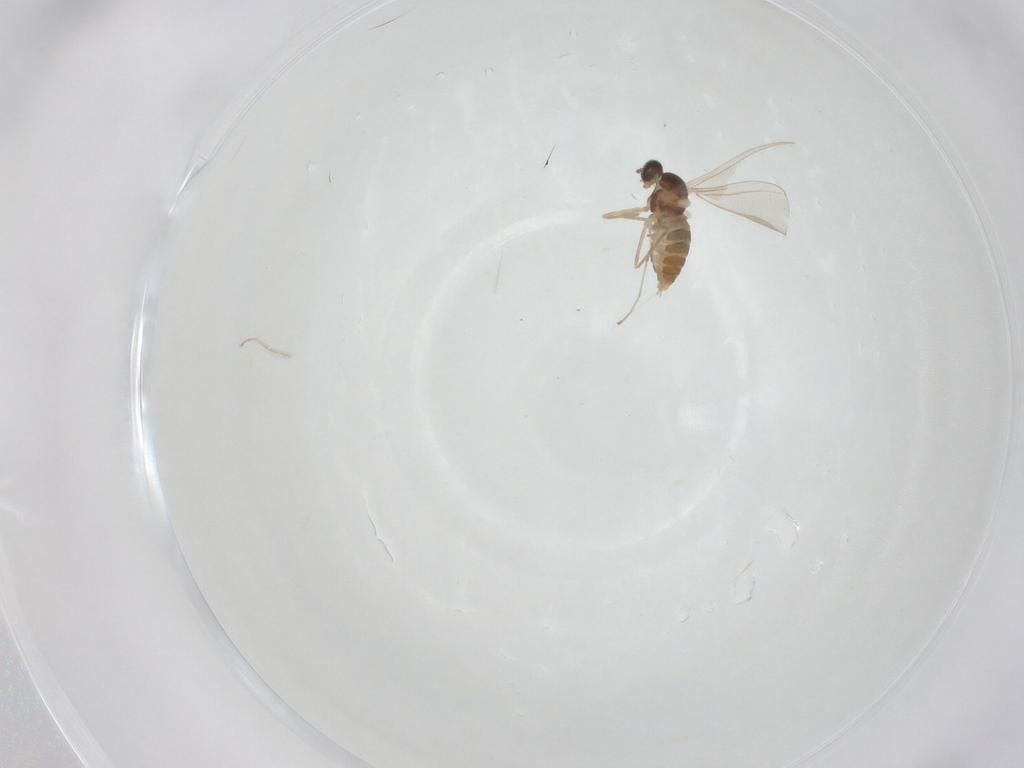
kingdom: Animalia
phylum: Arthropoda
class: Insecta
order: Diptera
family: Cecidomyiidae
